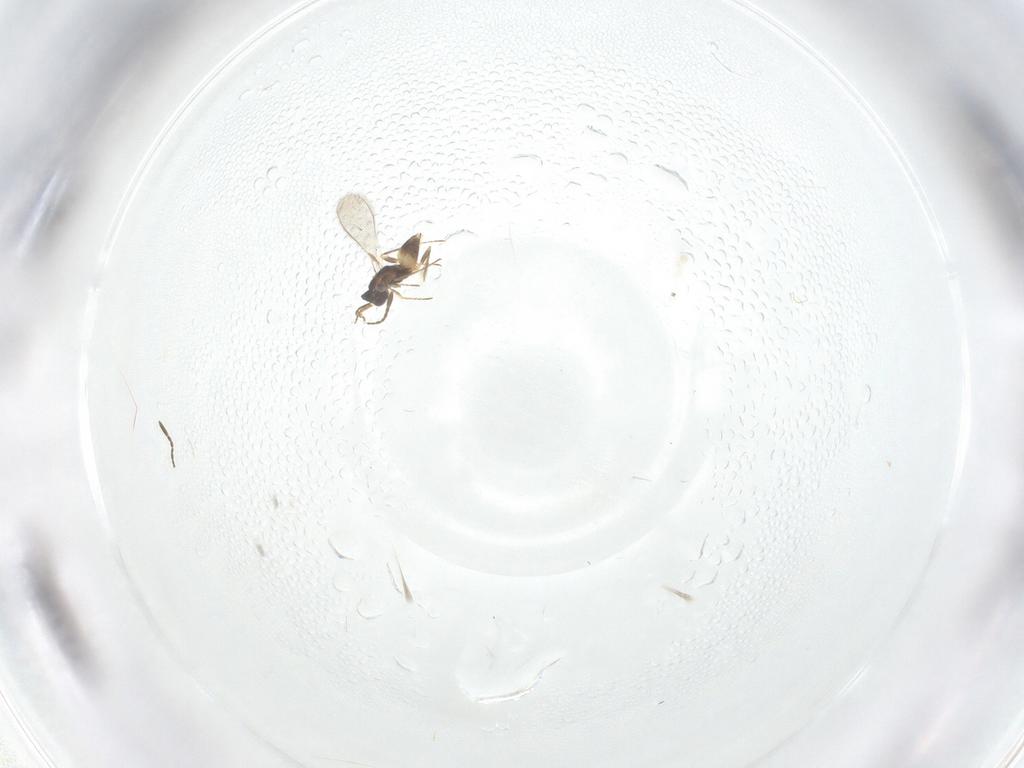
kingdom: Animalia
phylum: Arthropoda
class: Insecta
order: Hymenoptera
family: Mymaridae
